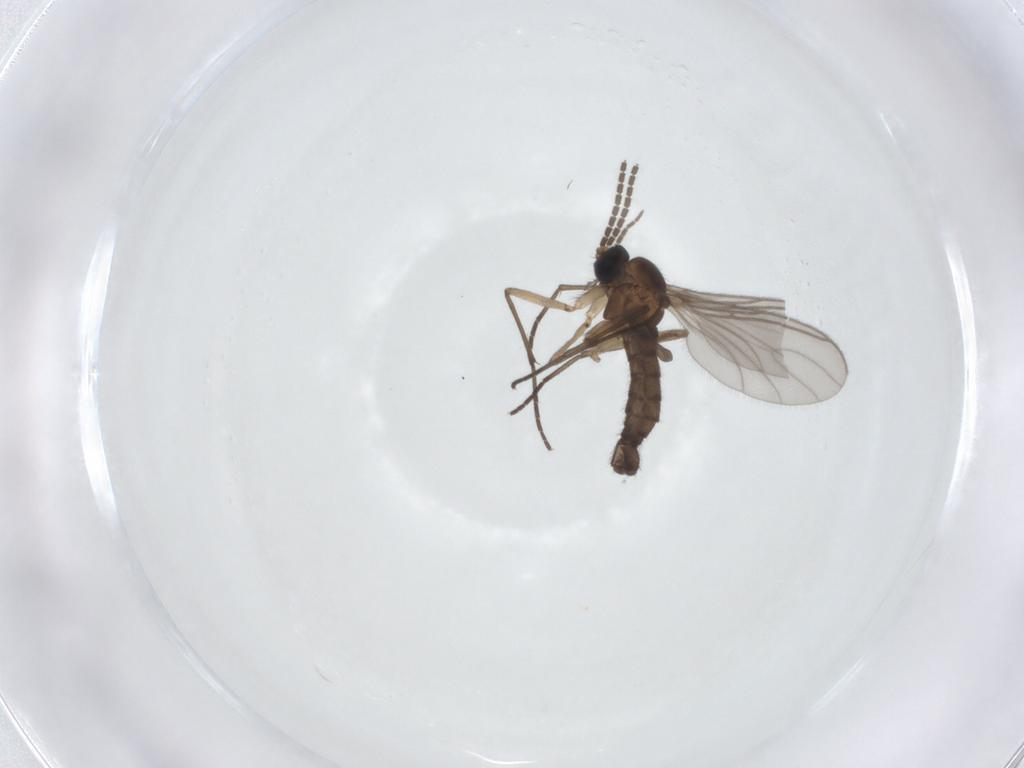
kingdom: Animalia
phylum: Arthropoda
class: Insecta
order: Diptera
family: Sciaridae
